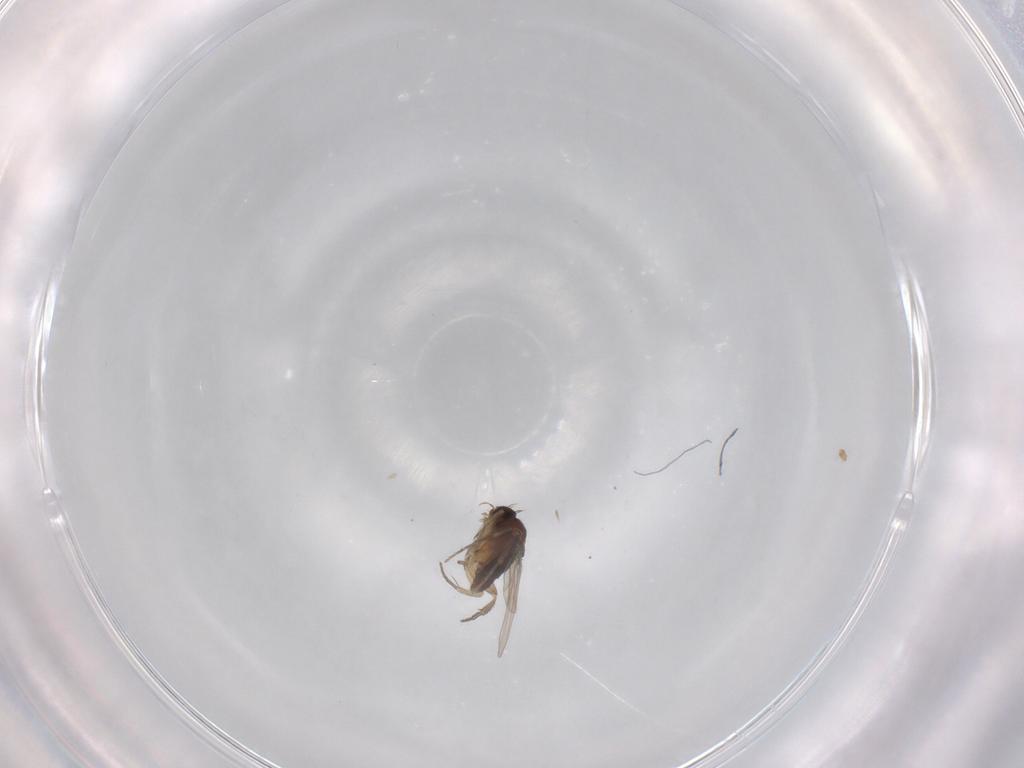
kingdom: Animalia
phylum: Arthropoda
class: Insecta
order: Diptera
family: Phoridae
